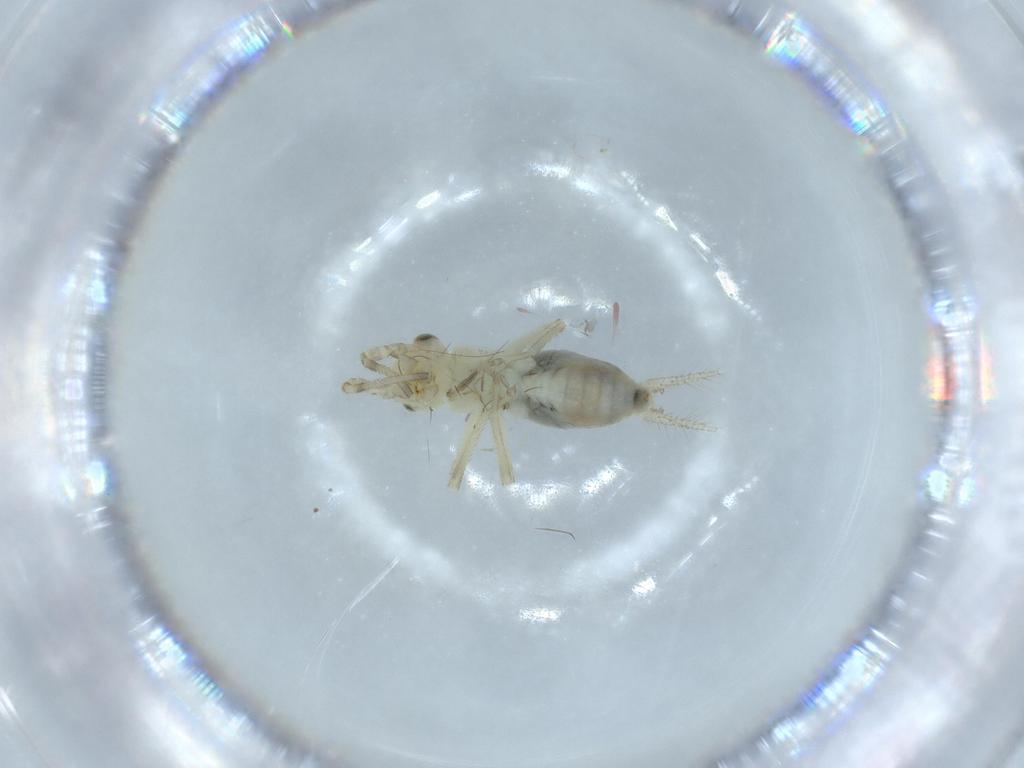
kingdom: Animalia
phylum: Arthropoda
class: Insecta
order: Orthoptera
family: Trigonidiidae
